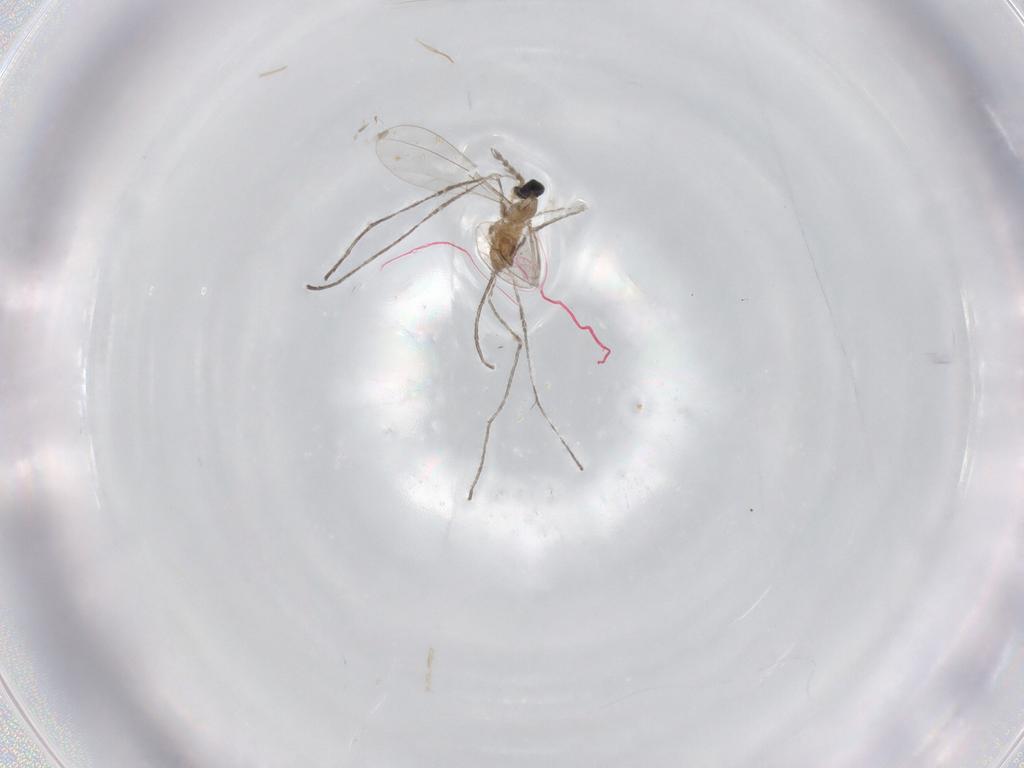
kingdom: Animalia
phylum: Arthropoda
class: Insecta
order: Diptera
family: Cecidomyiidae
